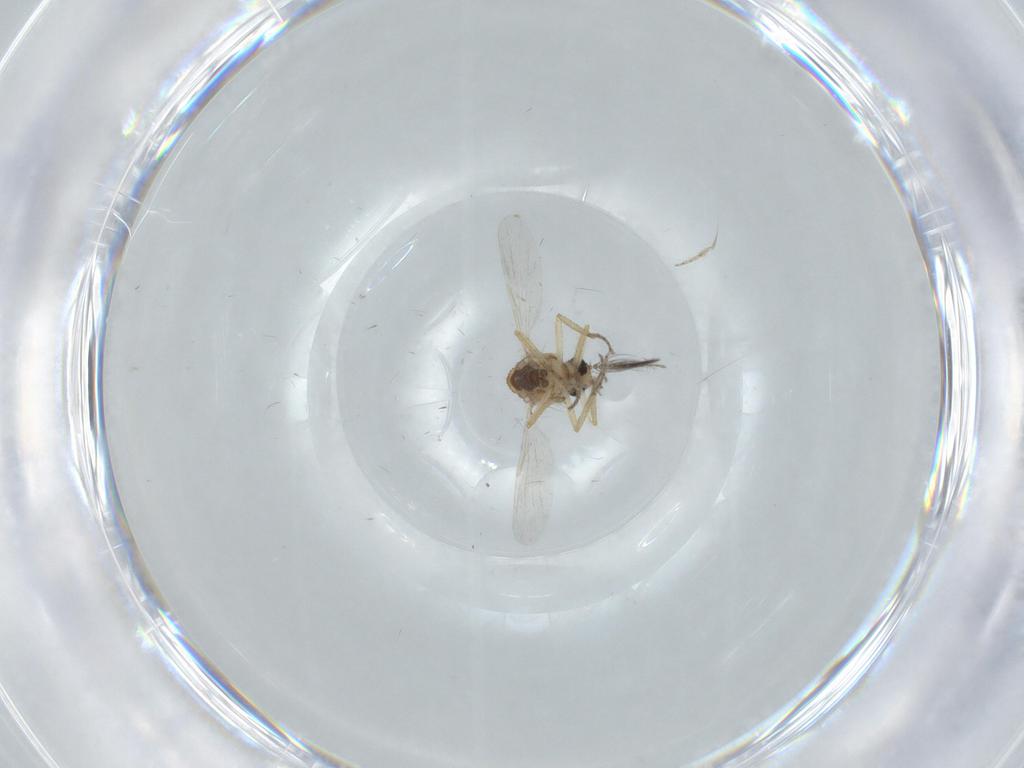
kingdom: Animalia
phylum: Arthropoda
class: Insecta
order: Diptera
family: Ceratopogonidae
